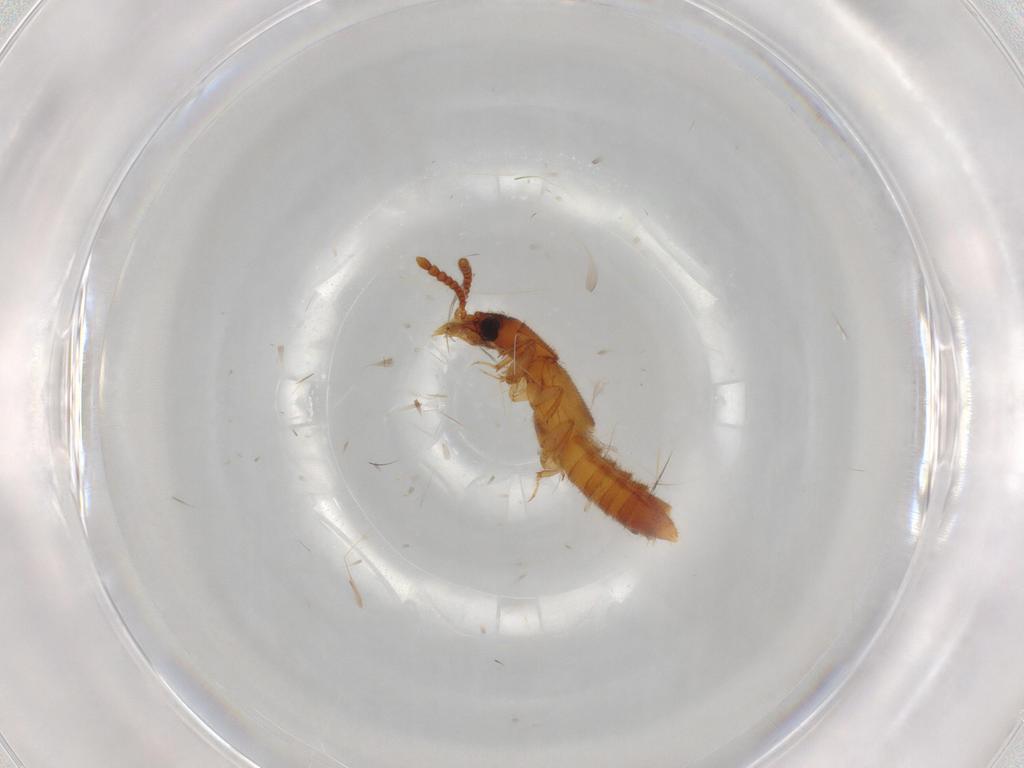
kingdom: Animalia
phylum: Arthropoda
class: Insecta
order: Coleoptera
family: Staphylinidae
